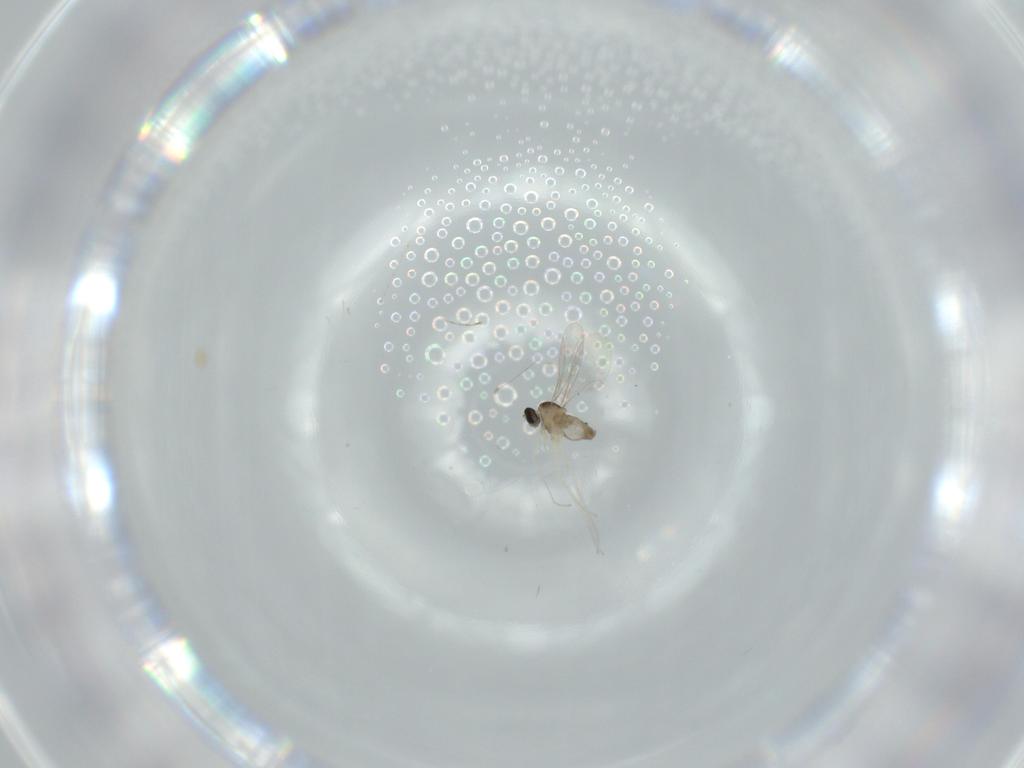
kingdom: Animalia
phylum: Arthropoda
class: Insecta
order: Diptera
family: Cecidomyiidae
